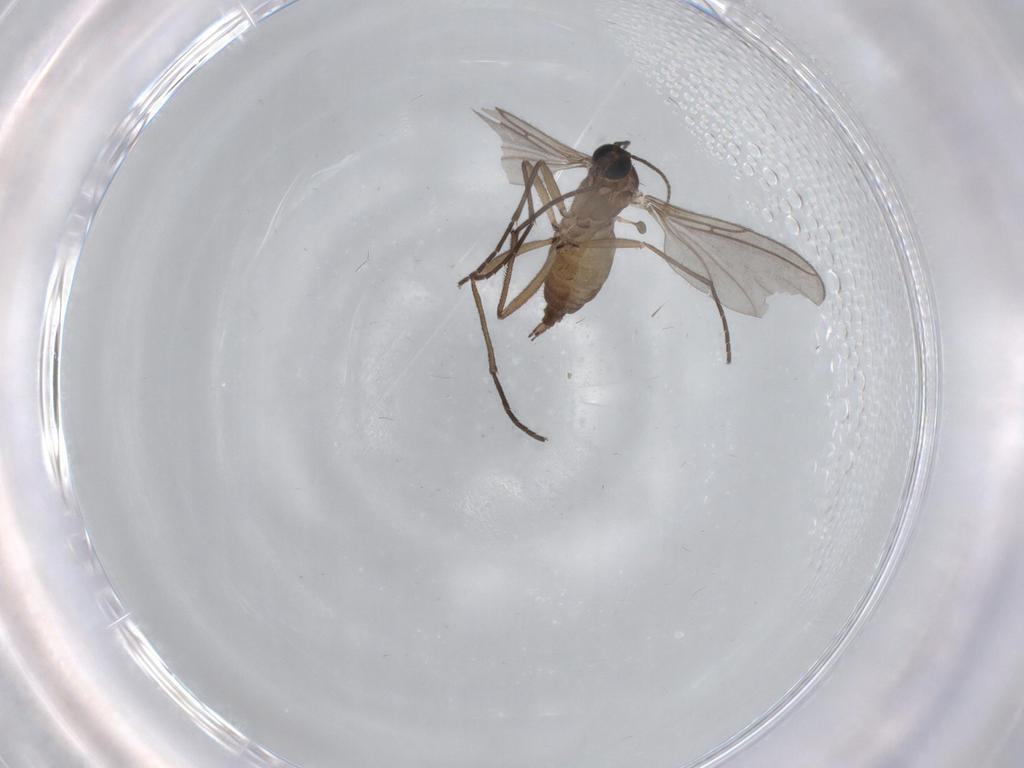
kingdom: Animalia
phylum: Arthropoda
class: Insecta
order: Diptera
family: Sciaridae
